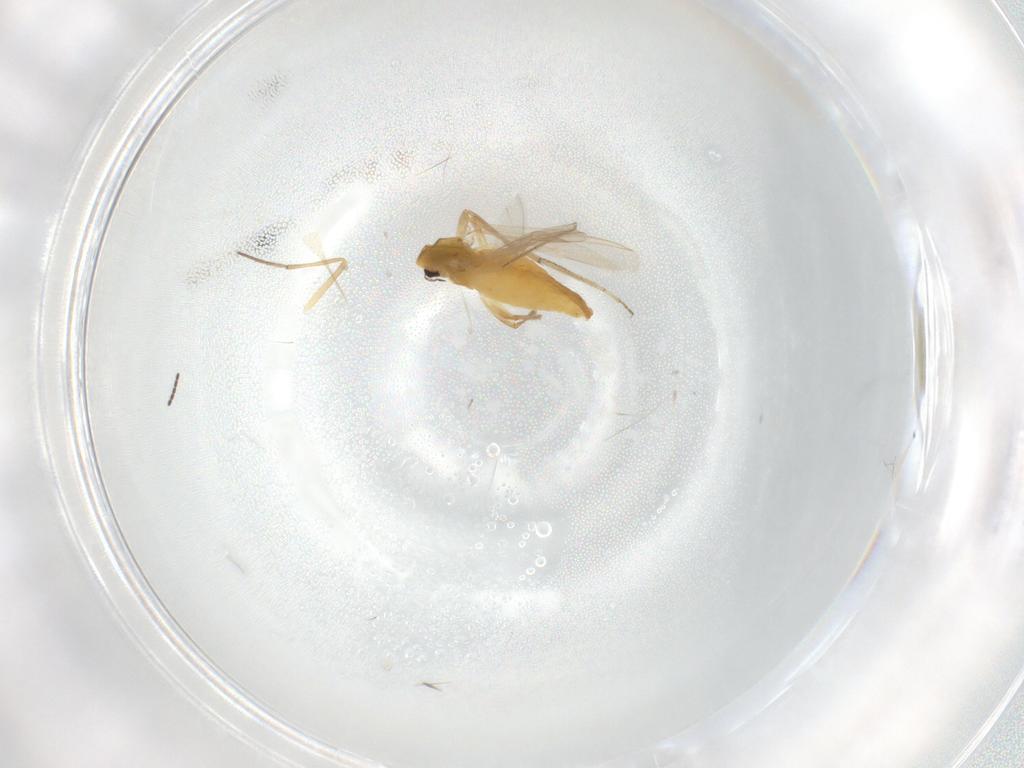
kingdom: Animalia
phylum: Arthropoda
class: Insecta
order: Diptera
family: Chironomidae
